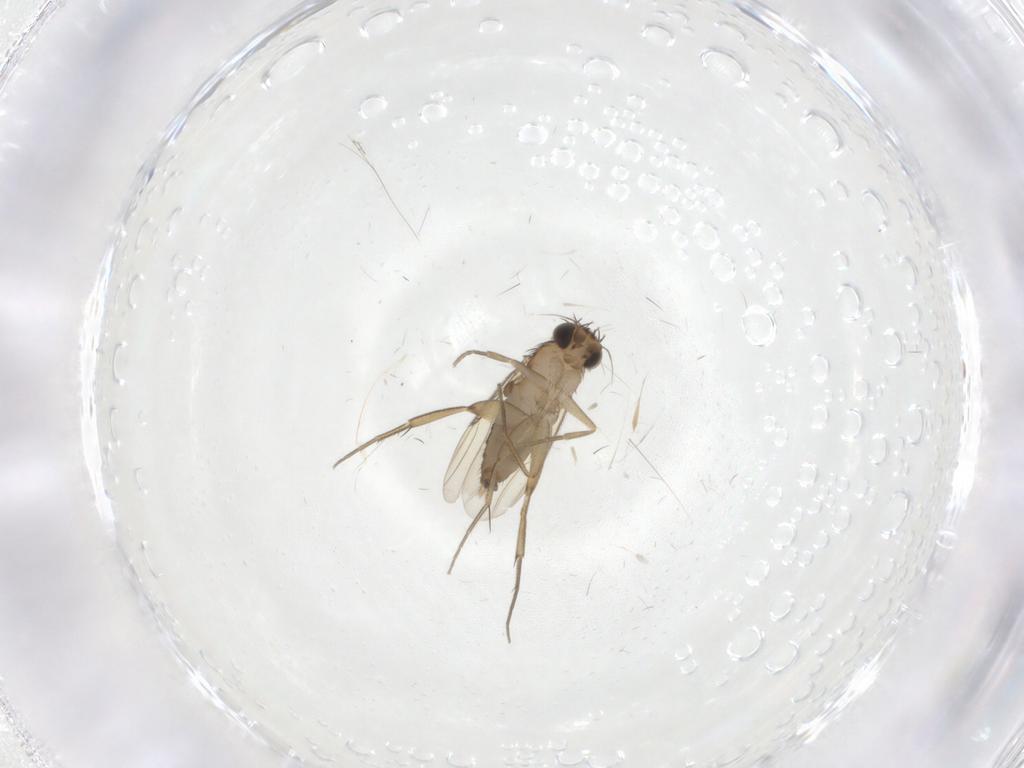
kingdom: Animalia
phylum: Arthropoda
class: Insecta
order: Diptera
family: Phoridae
